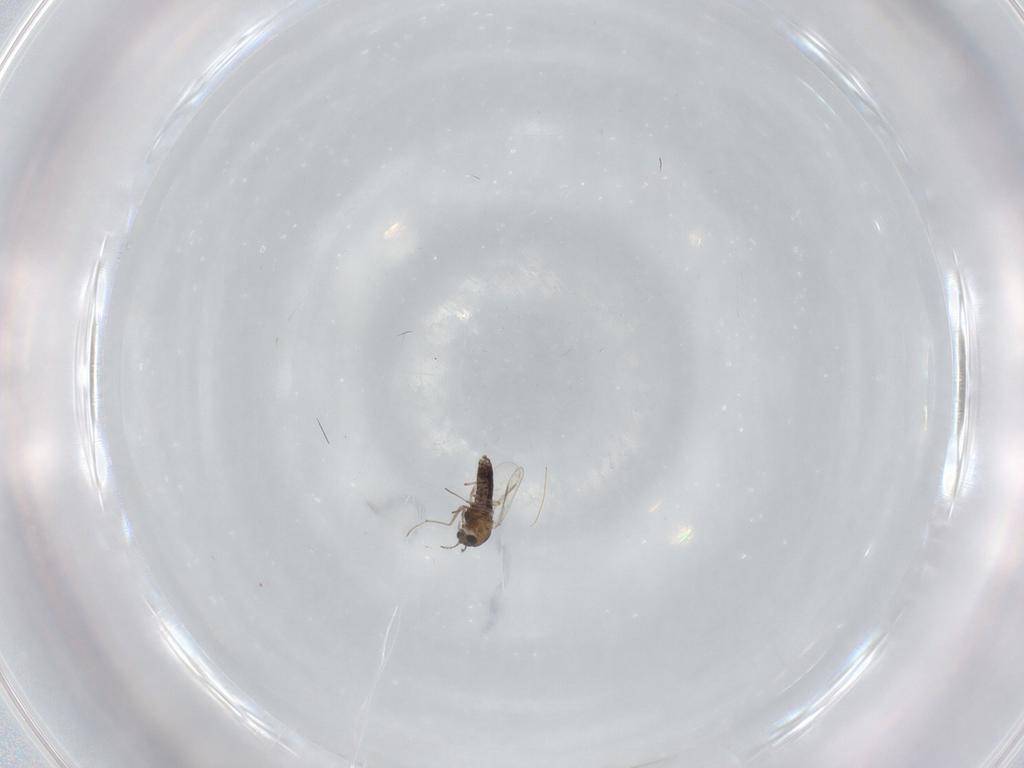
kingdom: Animalia
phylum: Arthropoda
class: Insecta
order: Diptera
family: Chironomidae
